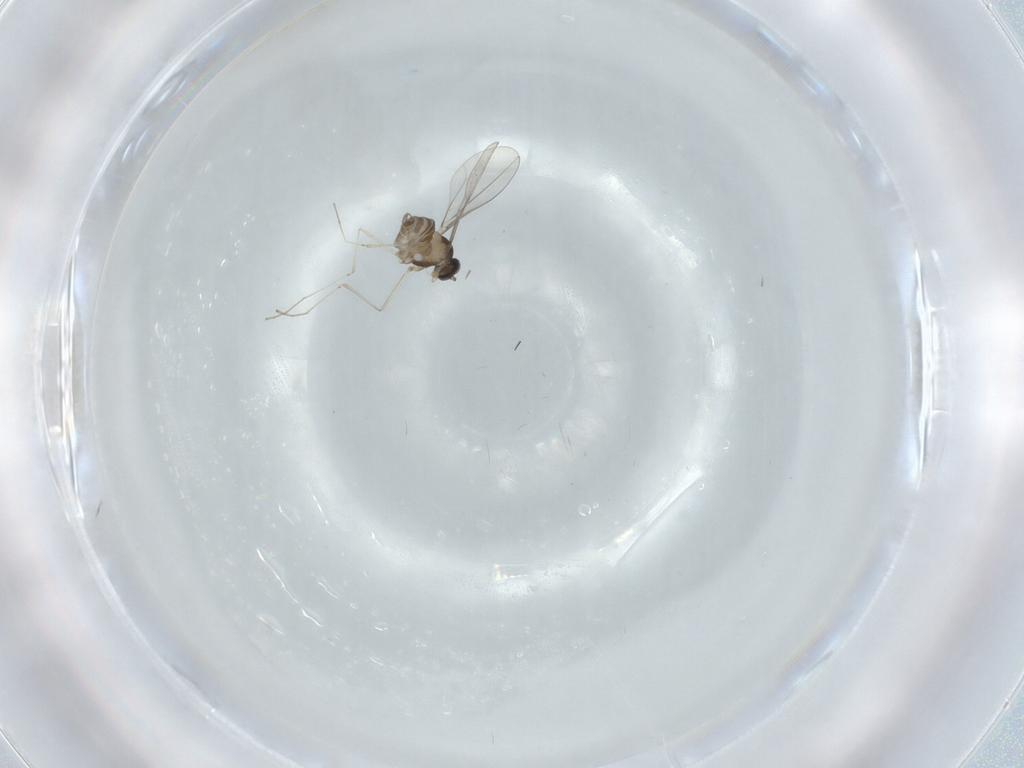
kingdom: Animalia
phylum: Arthropoda
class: Insecta
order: Diptera
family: Cecidomyiidae
